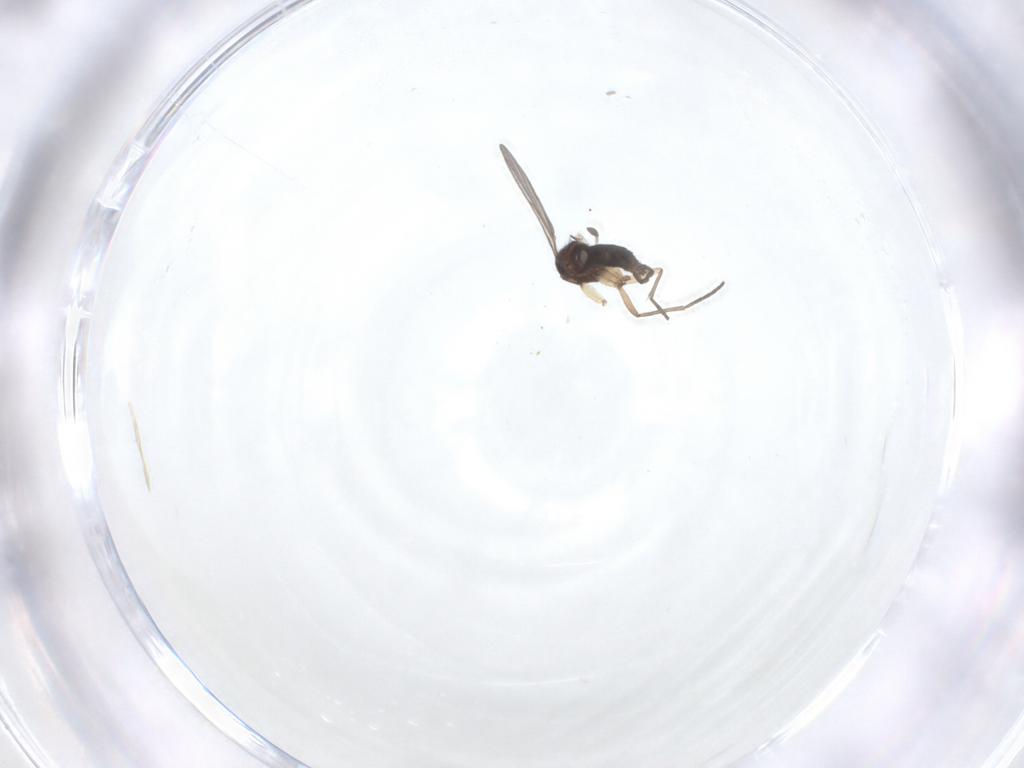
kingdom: Animalia
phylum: Arthropoda
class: Insecta
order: Diptera
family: Sciaridae
